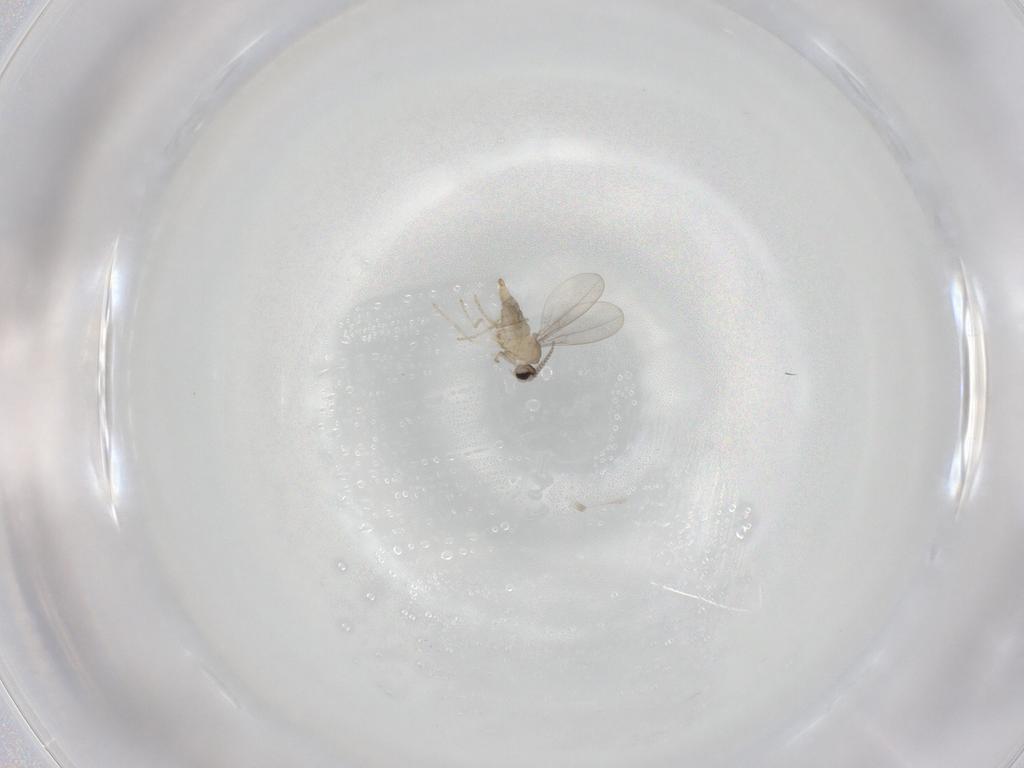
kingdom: Animalia
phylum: Arthropoda
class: Insecta
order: Diptera
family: Cecidomyiidae
